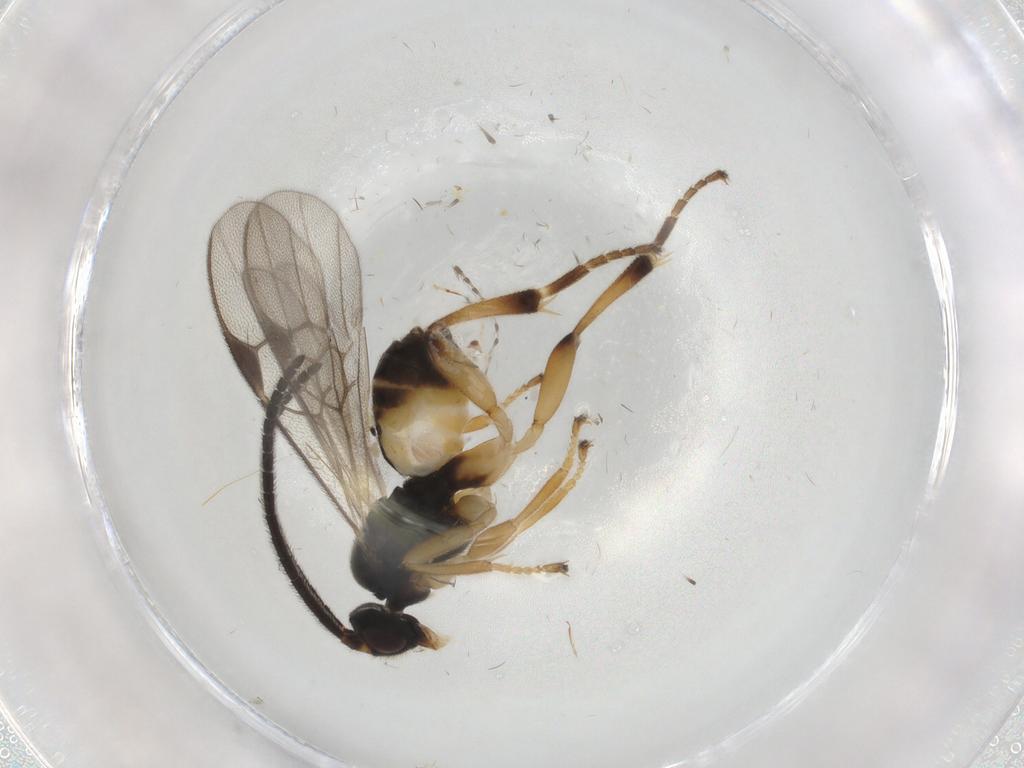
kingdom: Animalia
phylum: Arthropoda
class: Insecta
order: Hymenoptera
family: Braconidae
